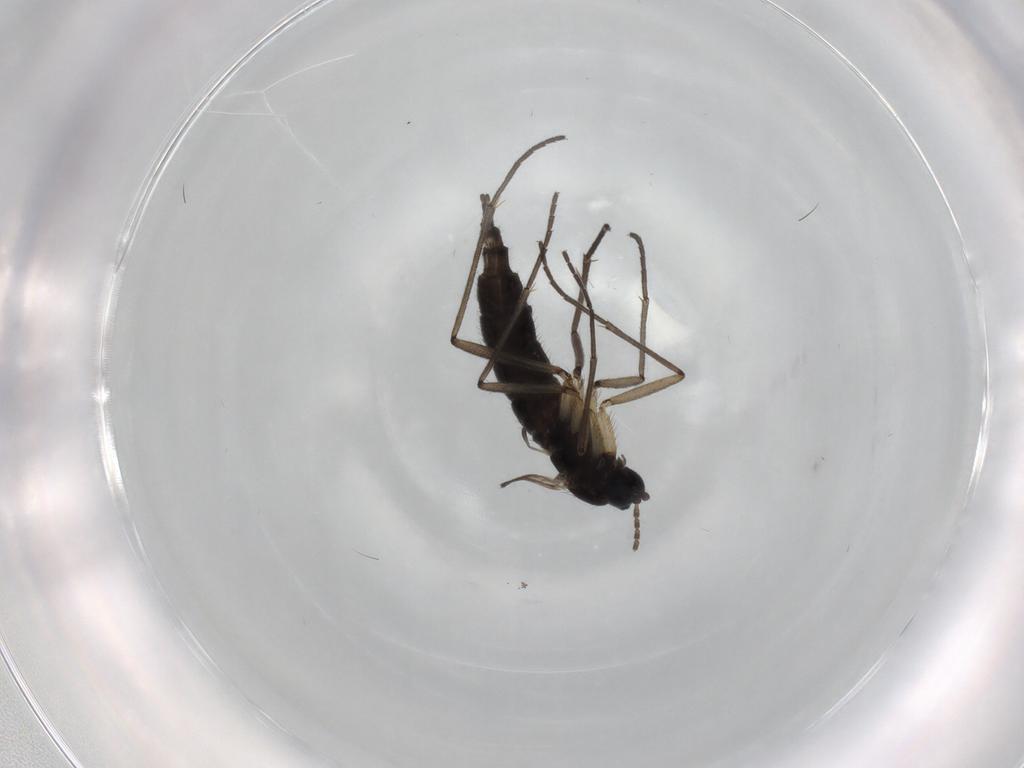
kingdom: Animalia
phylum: Arthropoda
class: Insecta
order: Diptera
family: Sciaridae
